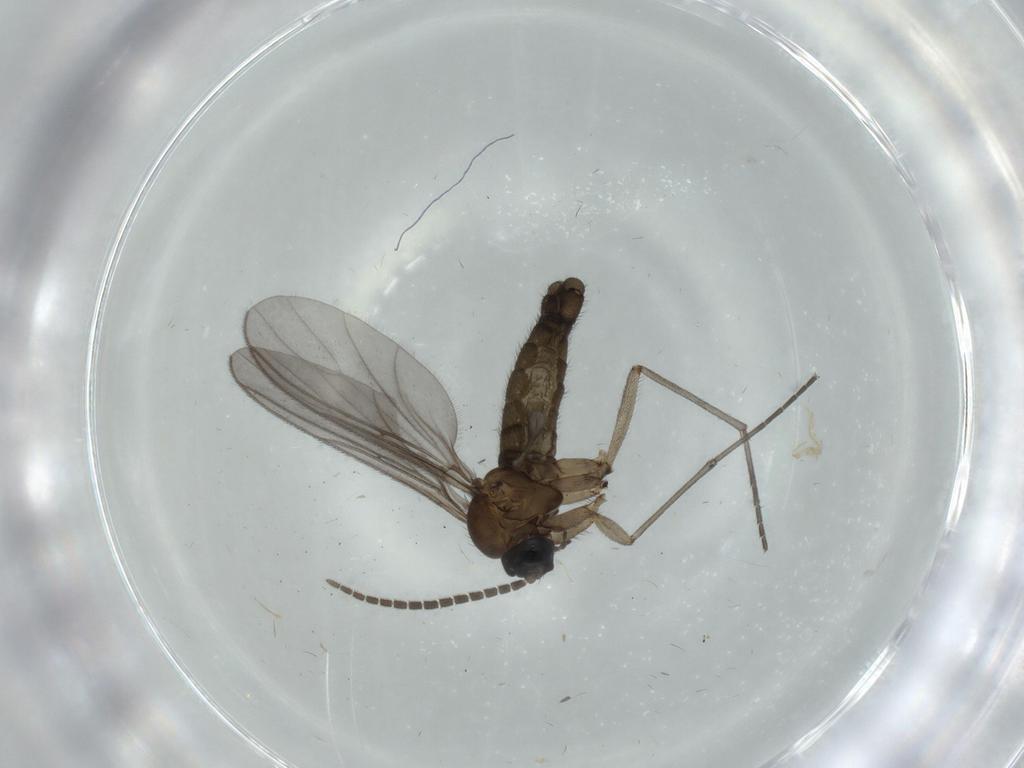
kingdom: Animalia
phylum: Arthropoda
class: Insecta
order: Diptera
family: Sciaridae
